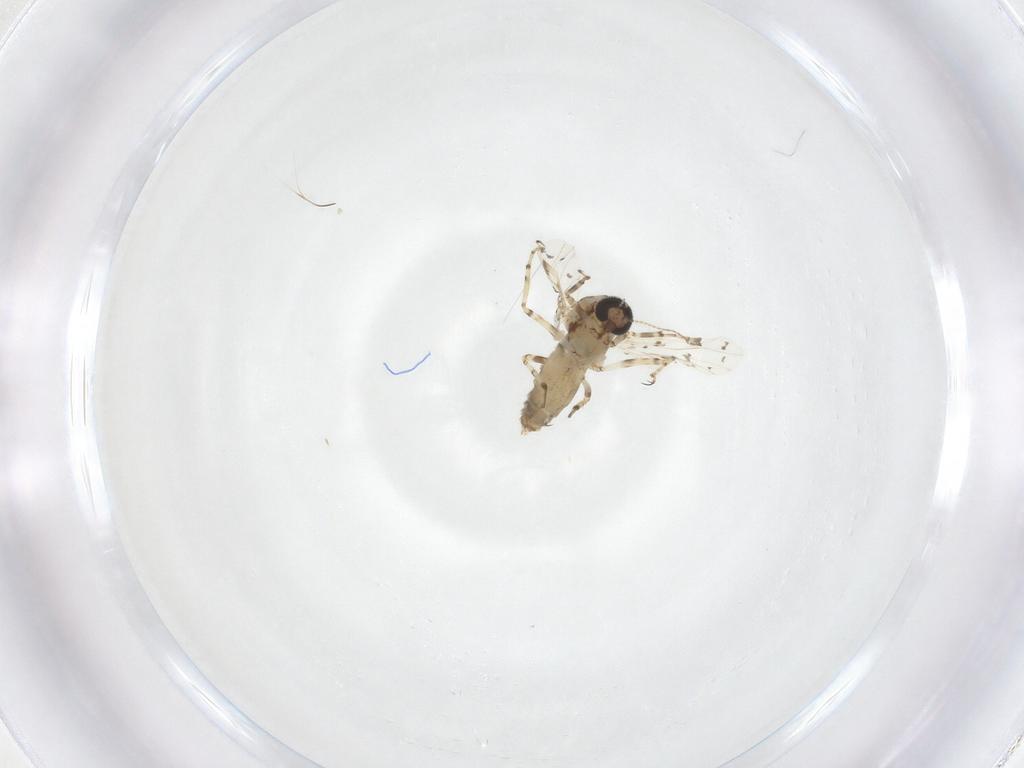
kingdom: Animalia
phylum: Arthropoda
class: Insecta
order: Diptera
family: Ceratopogonidae
